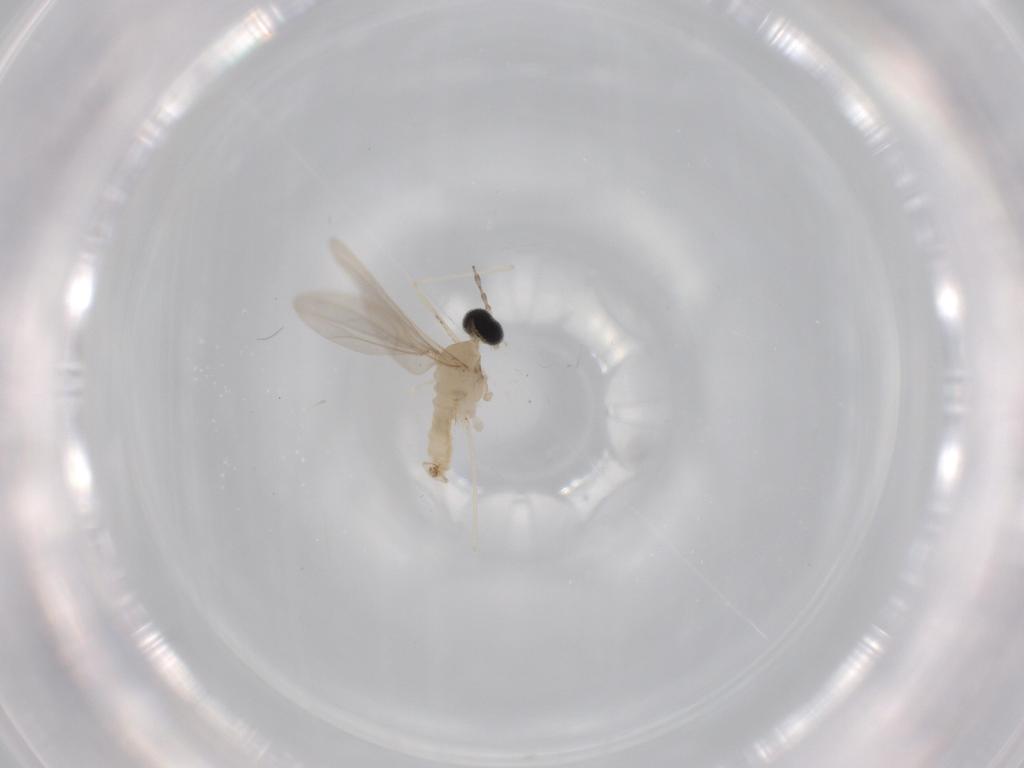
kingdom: Animalia
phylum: Arthropoda
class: Insecta
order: Diptera
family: Cecidomyiidae
